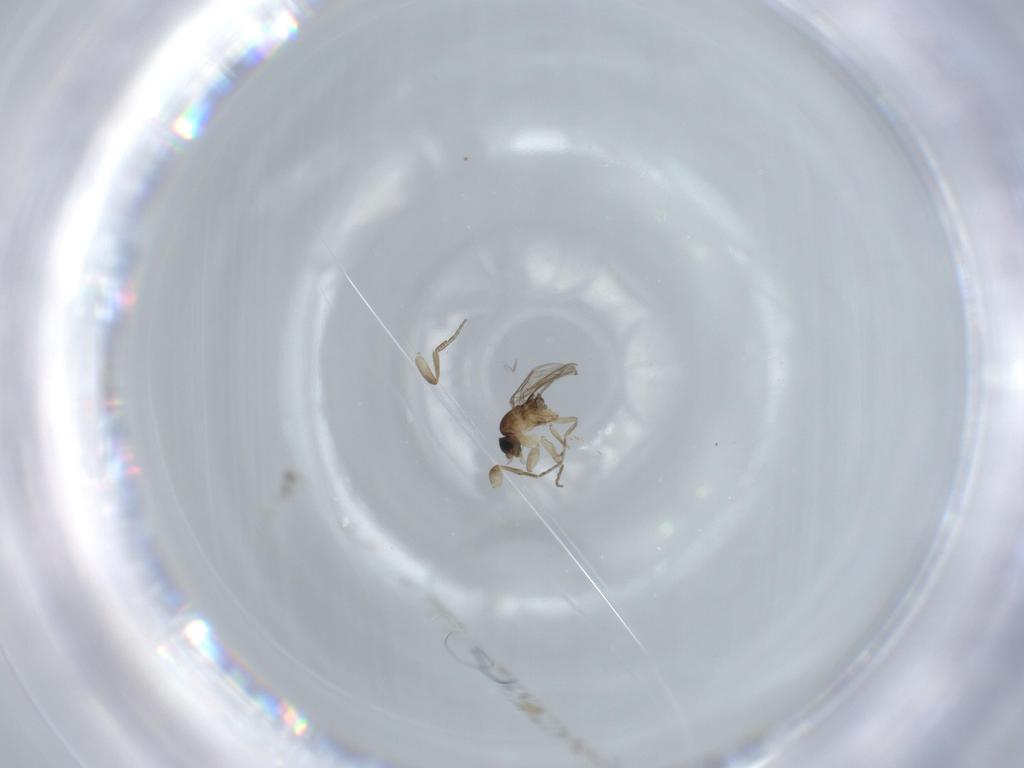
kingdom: Animalia
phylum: Arthropoda
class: Insecta
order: Diptera
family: Phoridae
